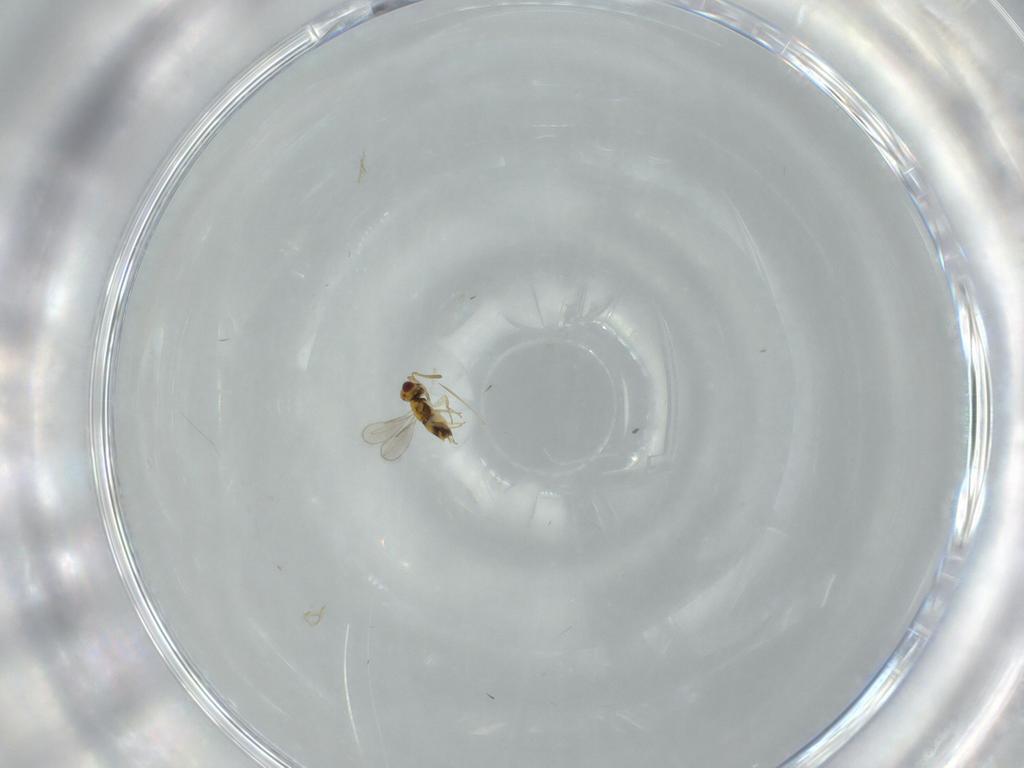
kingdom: Animalia
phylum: Arthropoda
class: Insecta
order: Hymenoptera
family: Aphelinidae
